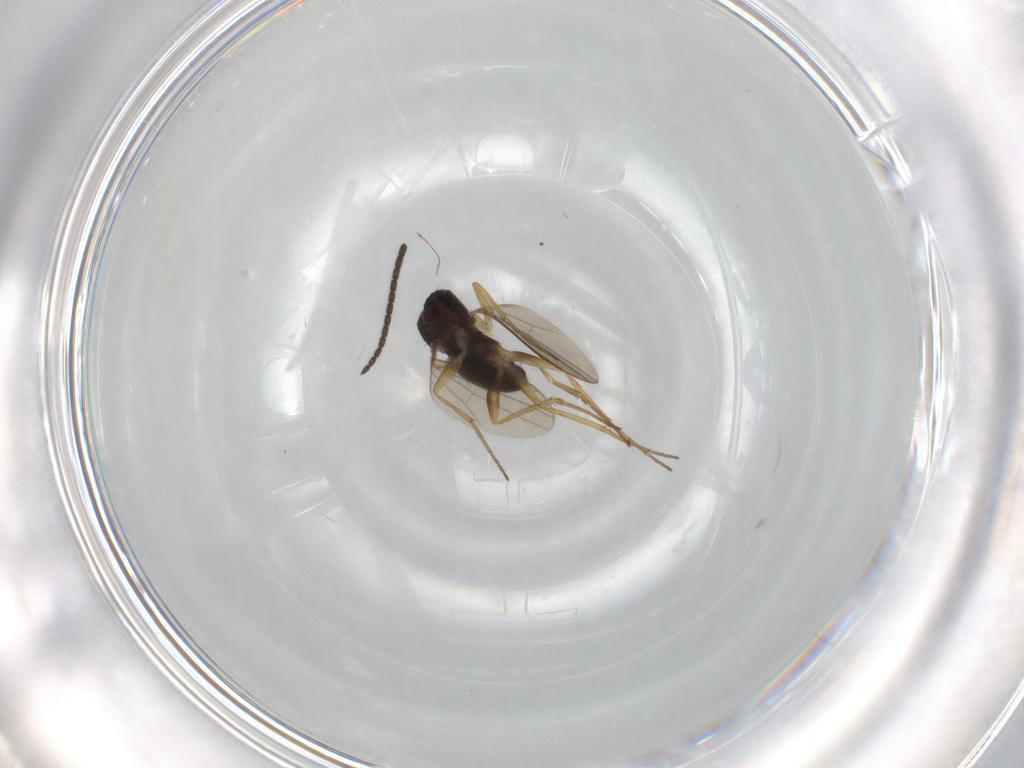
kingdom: Animalia
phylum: Arthropoda
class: Insecta
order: Diptera
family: Dolichopodidae
